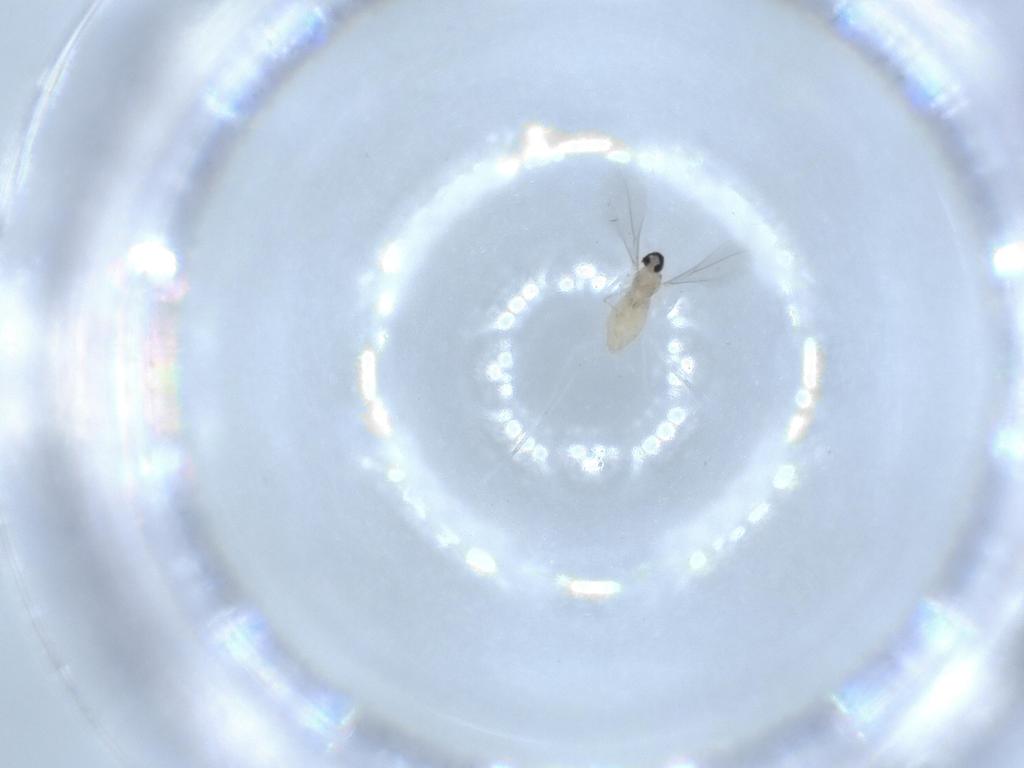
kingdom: Animalia
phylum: Arthropoda
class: Insecta
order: Diptera
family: Cecidomyiidae
